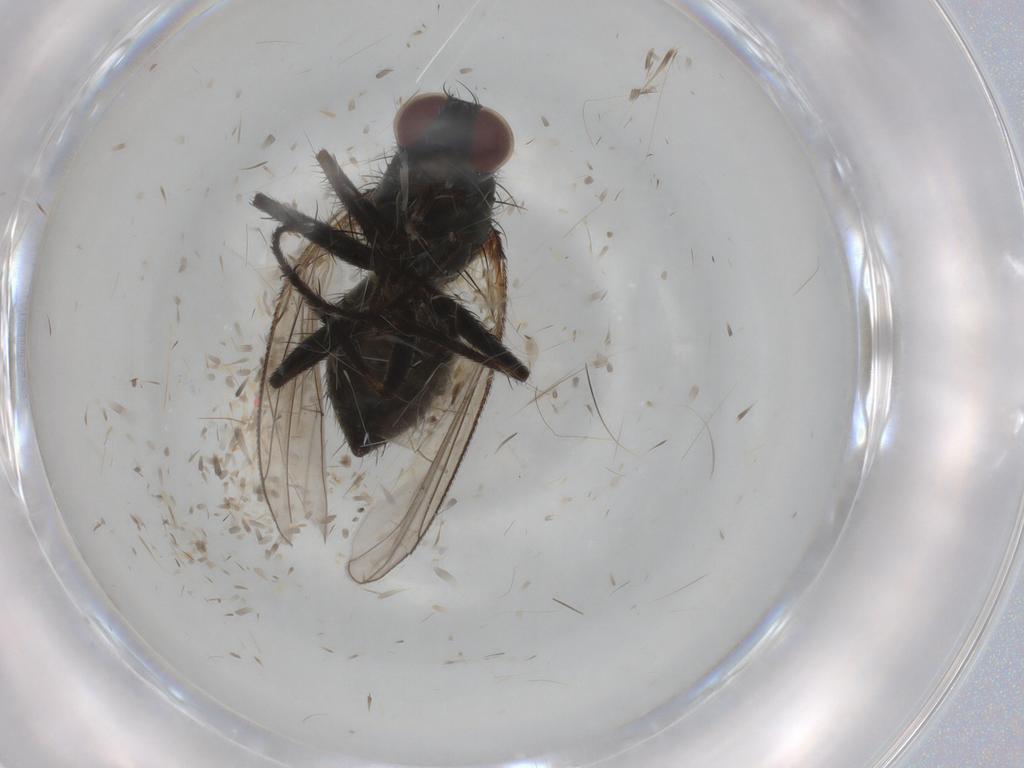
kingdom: Animalia
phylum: Arthropoda
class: Insecta
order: Diptera
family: Muscidae
